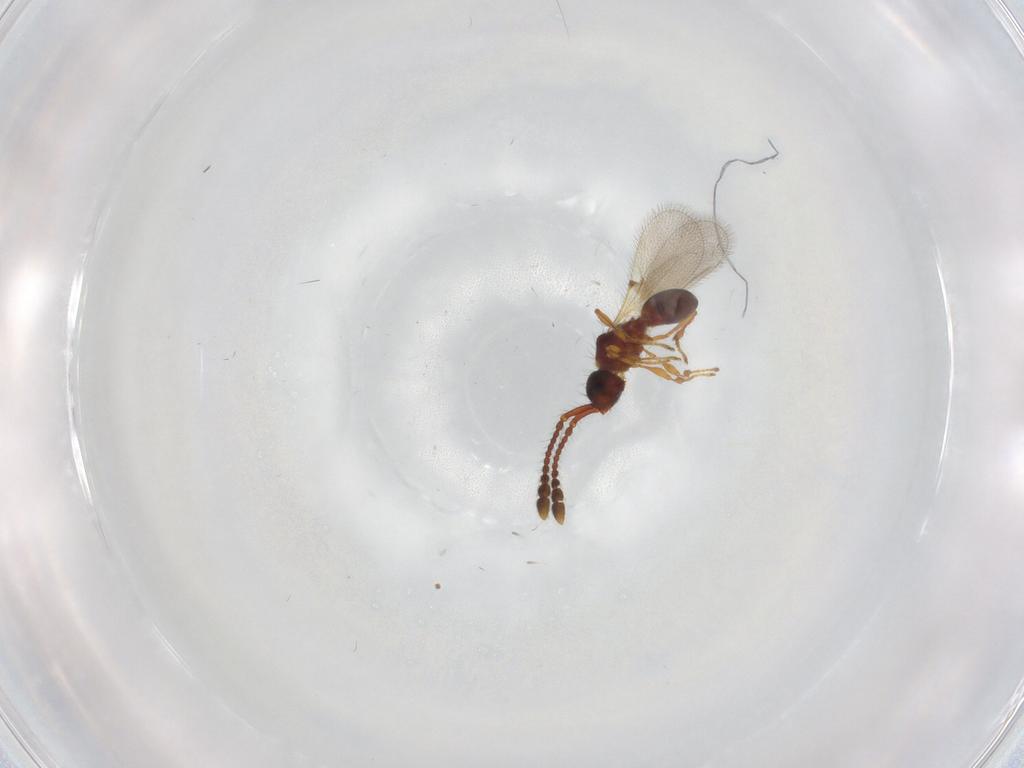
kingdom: Animalia
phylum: Arthropoda
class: Insecta
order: Hymenoptera
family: Diapriidae
